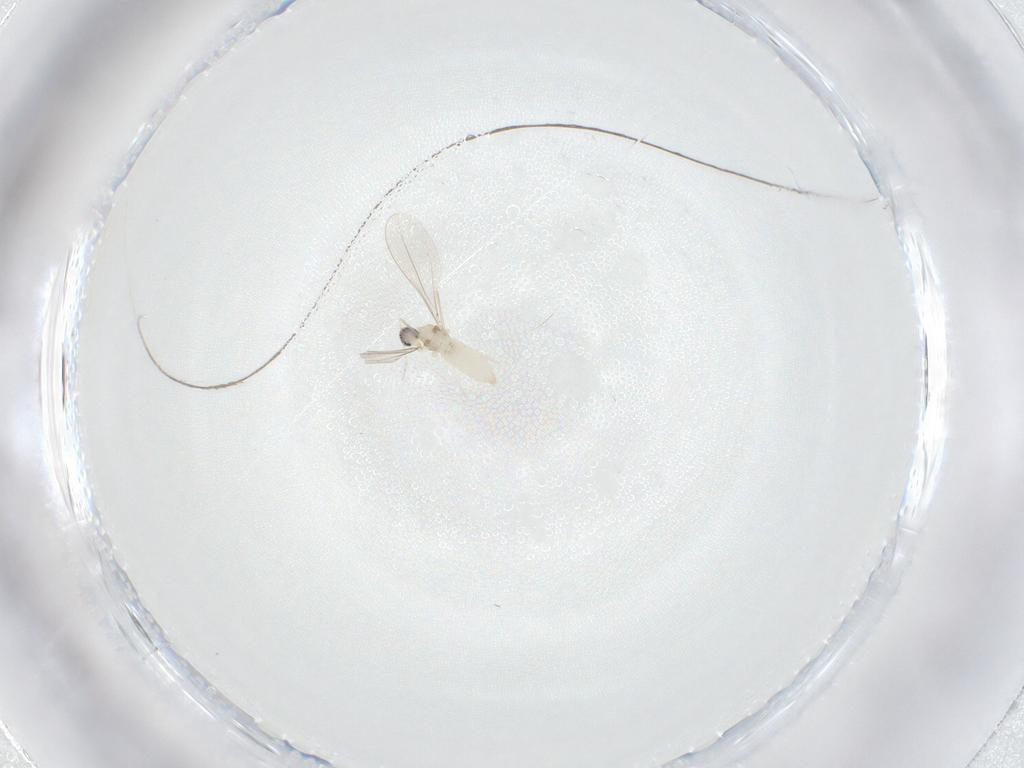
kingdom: Animalia
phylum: Arthropoda
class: Insecta
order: Diptera
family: Cecidomyiidae
